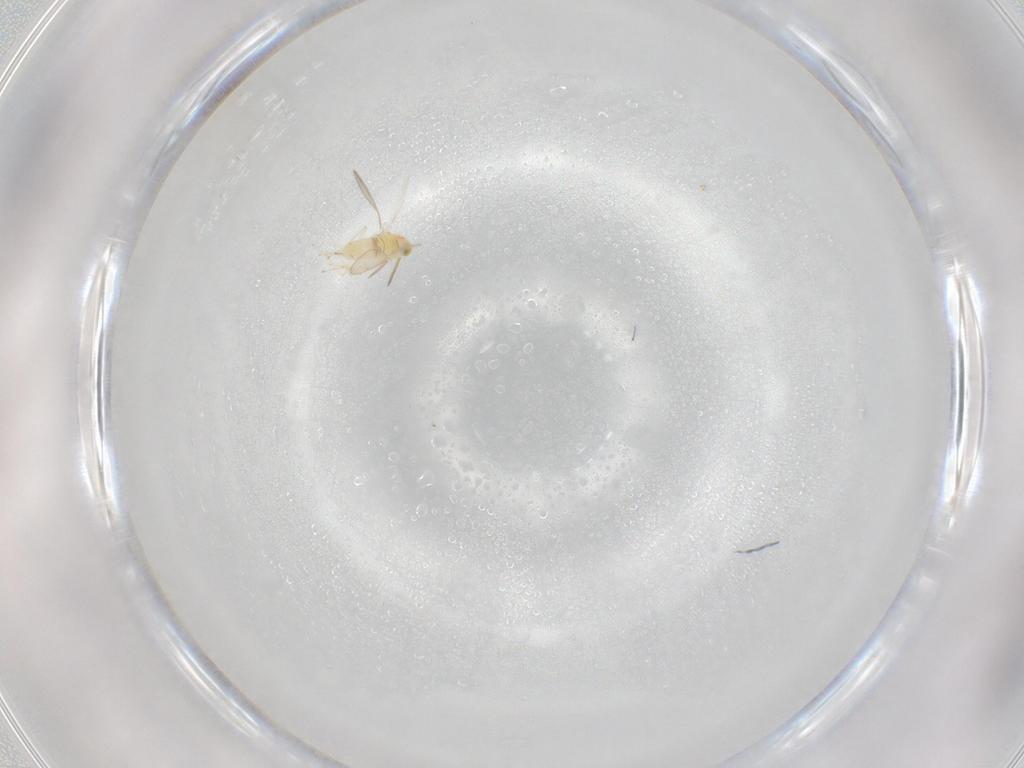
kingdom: Animalia
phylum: Arthropoda
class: Insecta
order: Hymenoptera
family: Aphelinidae
